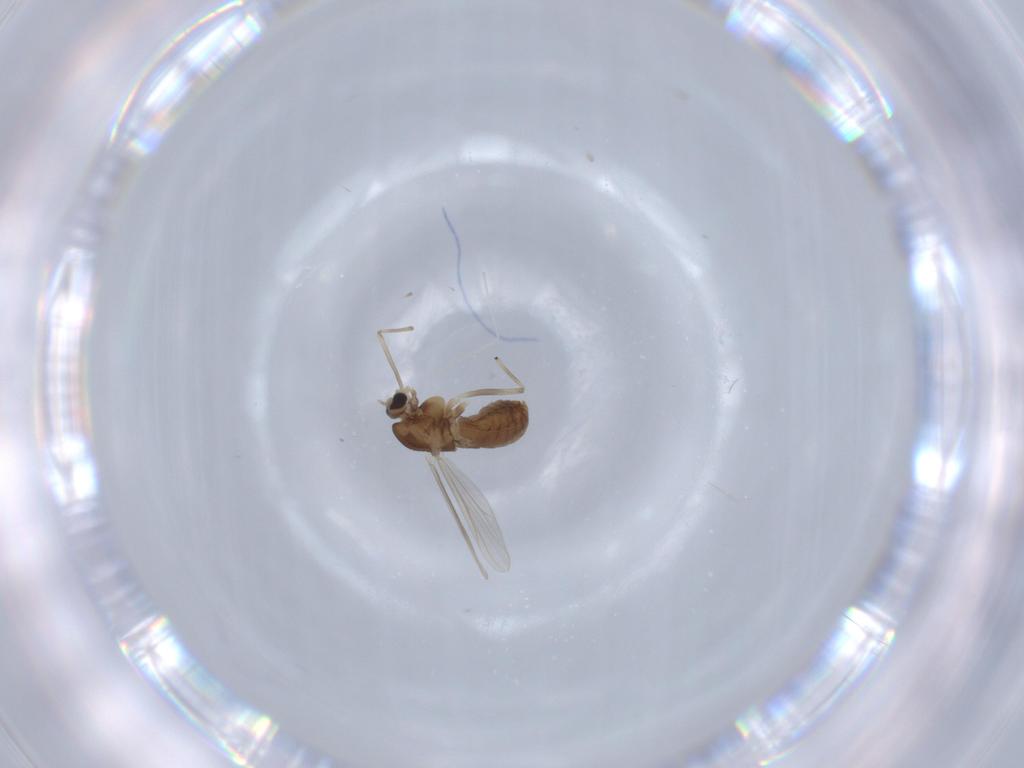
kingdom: Animalia
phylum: Arthropoda
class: Insecta
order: Diptera
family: Chironomidae
